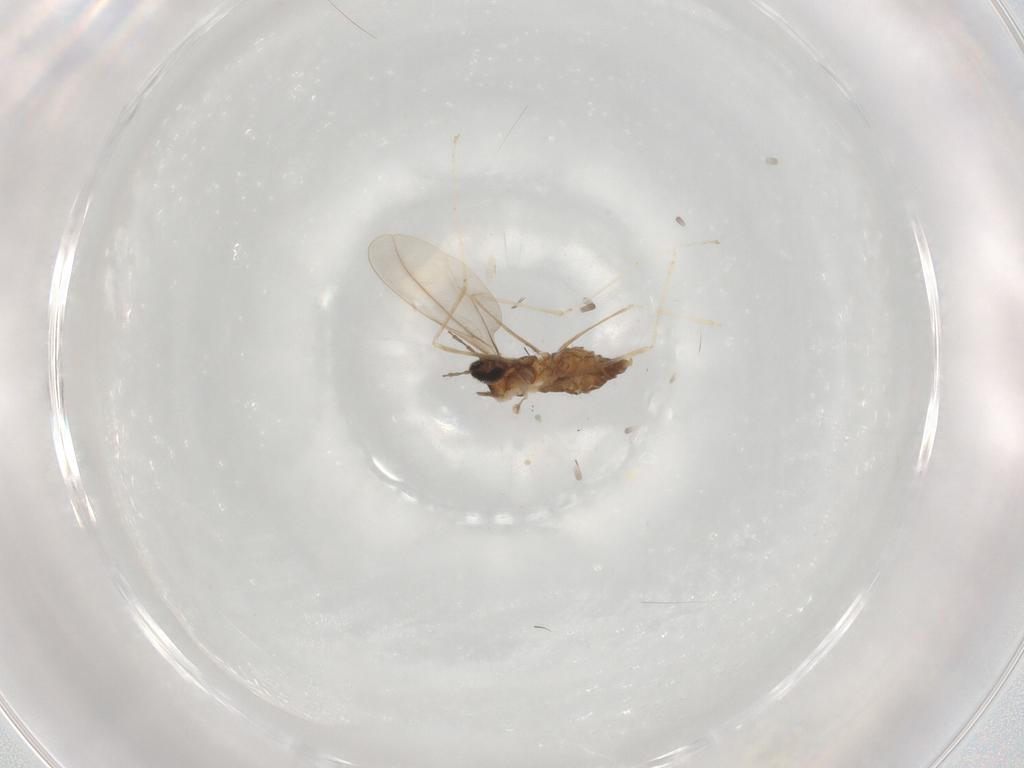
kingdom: Animalia
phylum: Arthropoda
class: Insecta
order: Diptera
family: Cecidomyiidae
